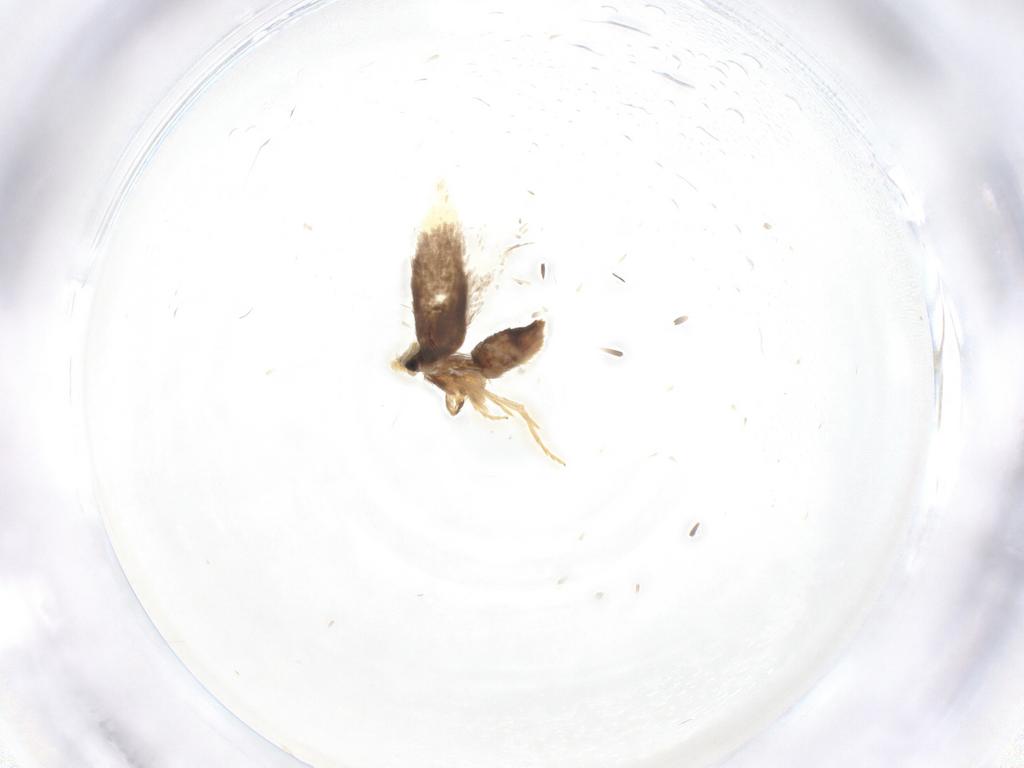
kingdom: Animalia
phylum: Arthropoda
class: Insecta
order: Lepidoptera
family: Nepticulidae
